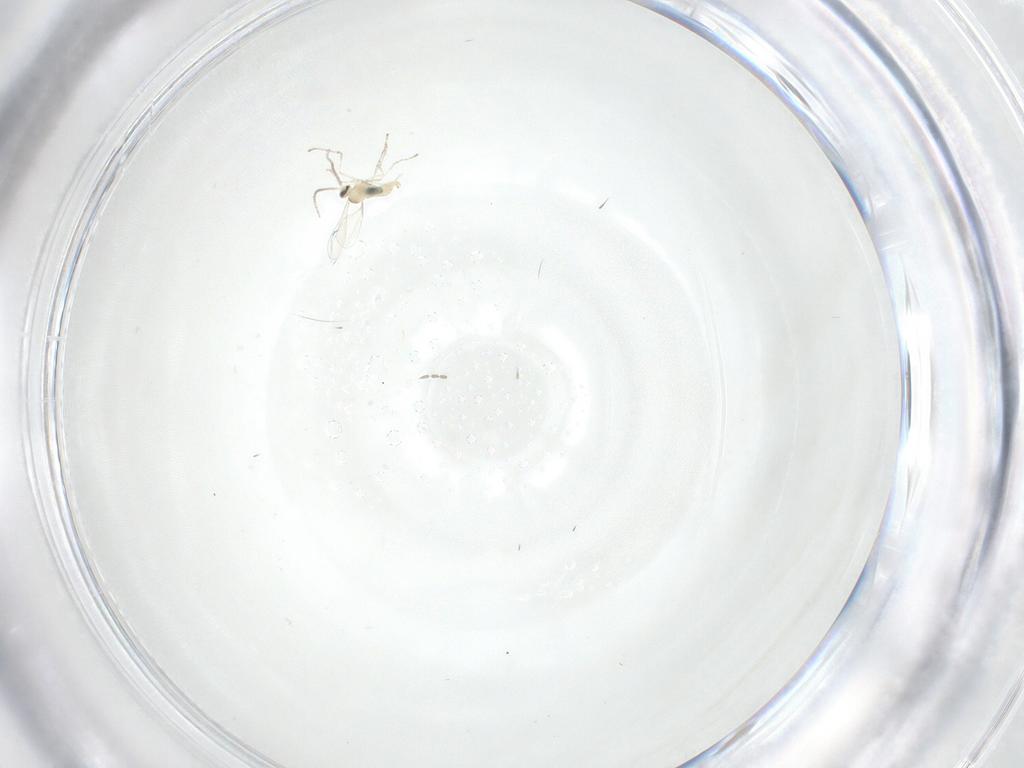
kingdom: Animalia
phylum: Arthropoda
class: Insecta
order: Diptera
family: Cecidomyiidae
